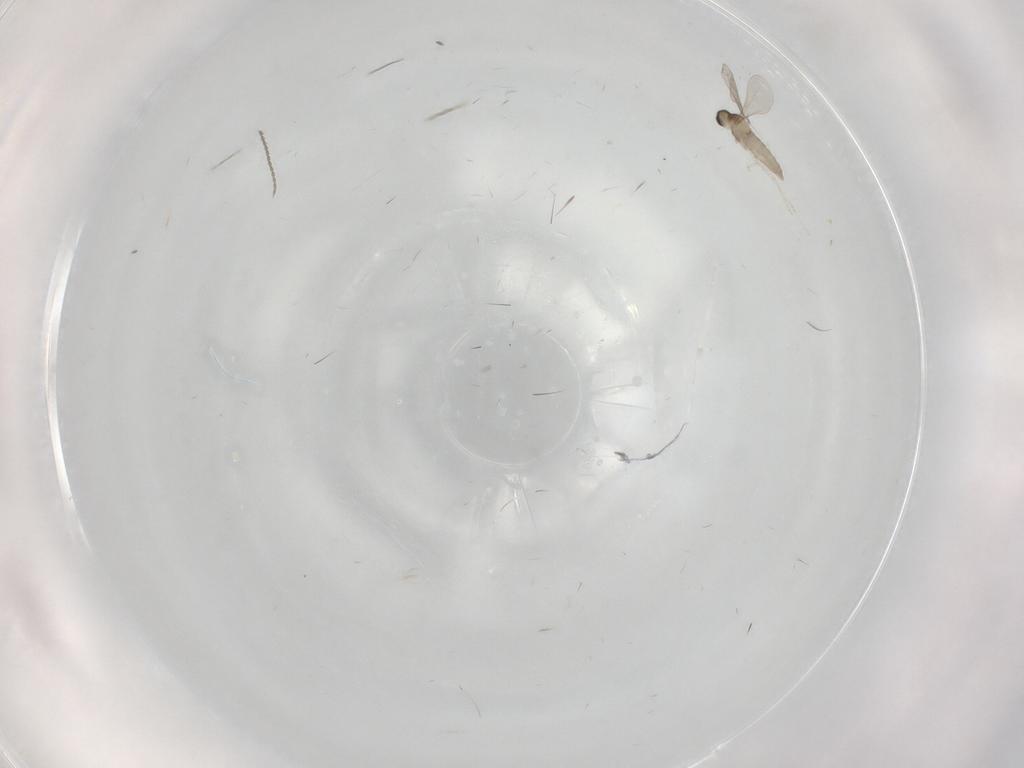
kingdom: Animalia
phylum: Arthropoda
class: Insecta
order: Diptera
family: Cecidomyiidae
